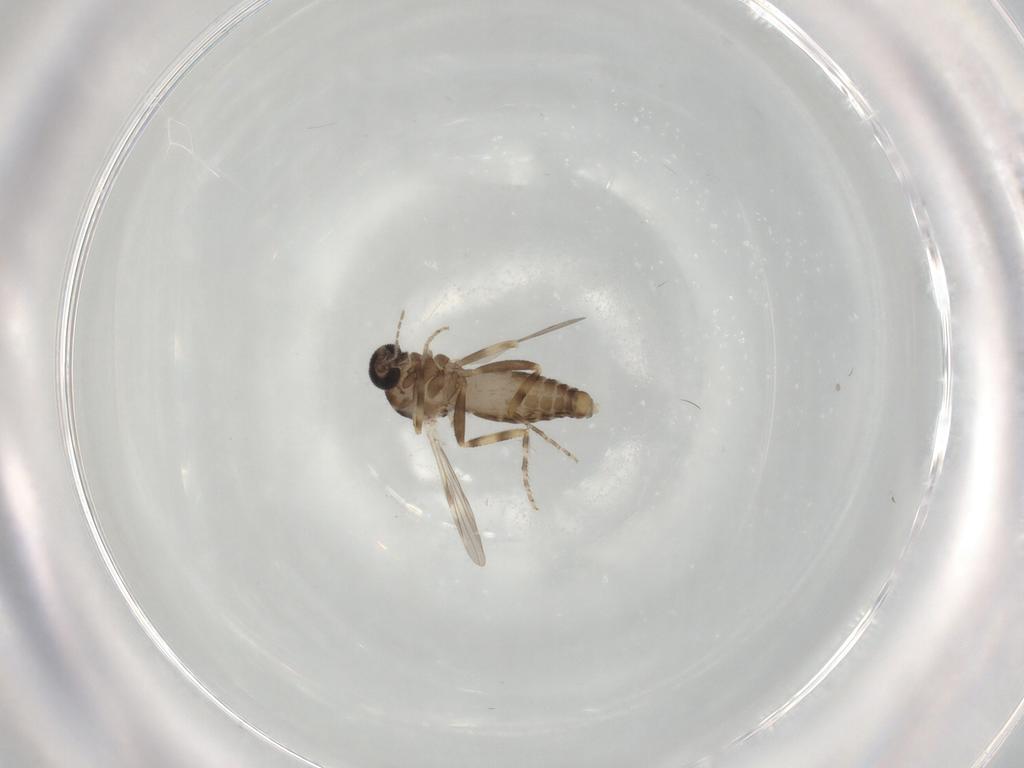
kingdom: Animalia
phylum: Arthropoda
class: Insecta
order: Diptera
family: Ceratopogonidae
